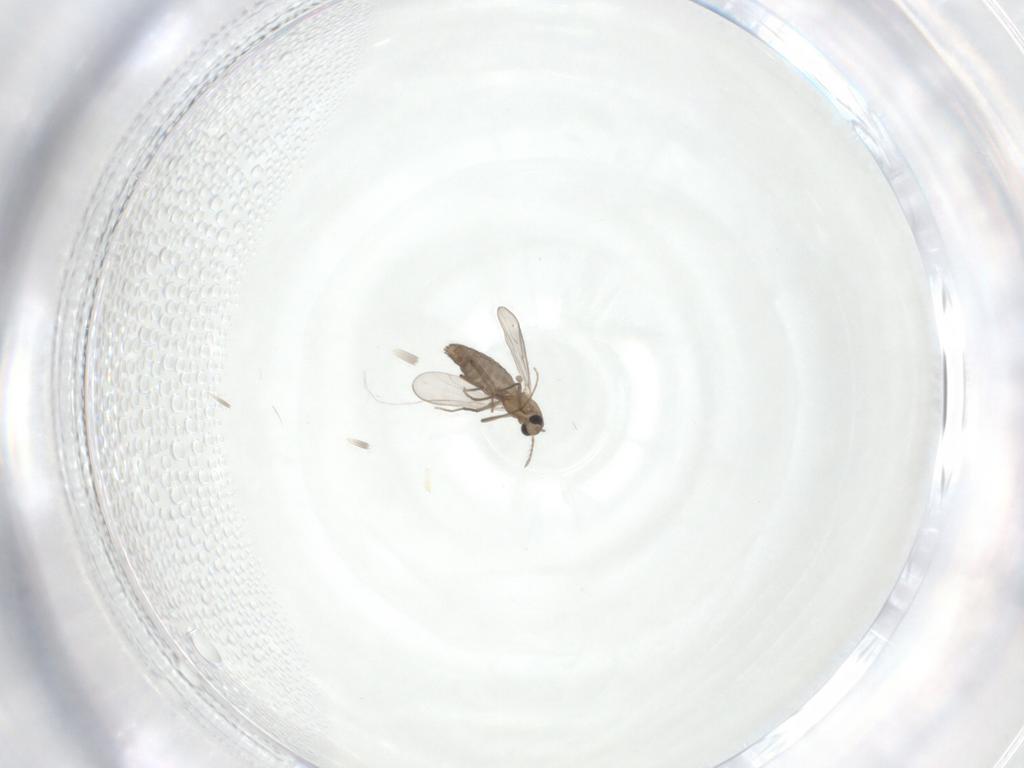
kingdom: Animalia
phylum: Arthropoda
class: Insecta
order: Diptera
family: Chironomidae
